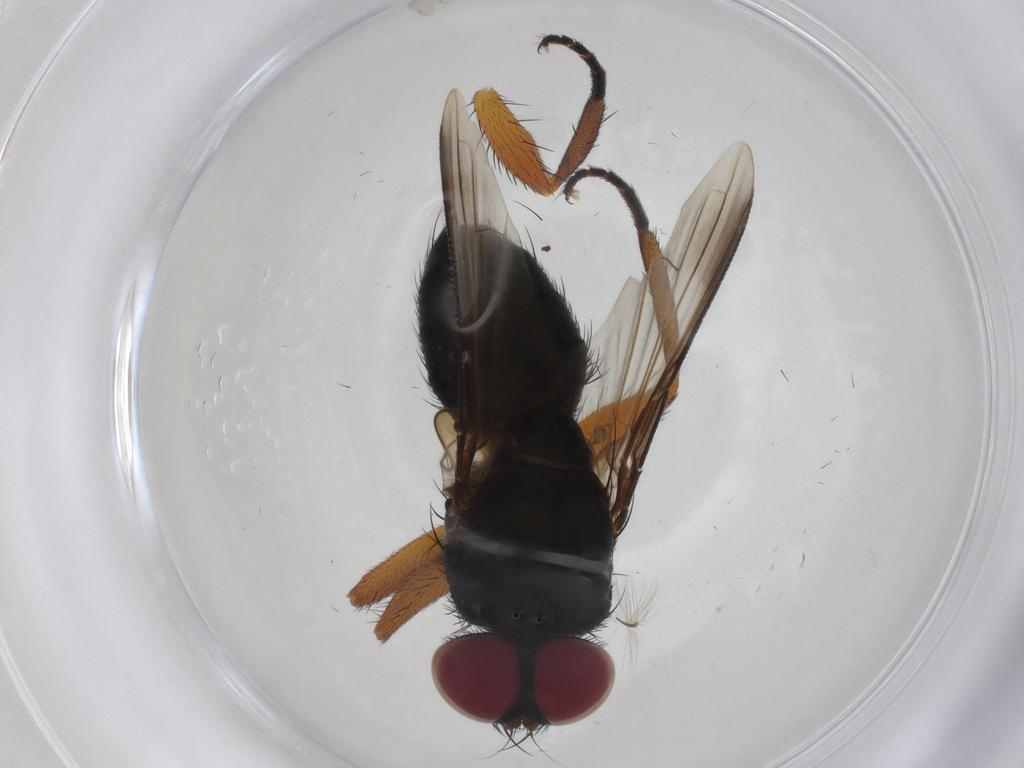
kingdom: Animalia
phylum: Arthropoda
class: Insecta
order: Diptera
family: Tachinidae
